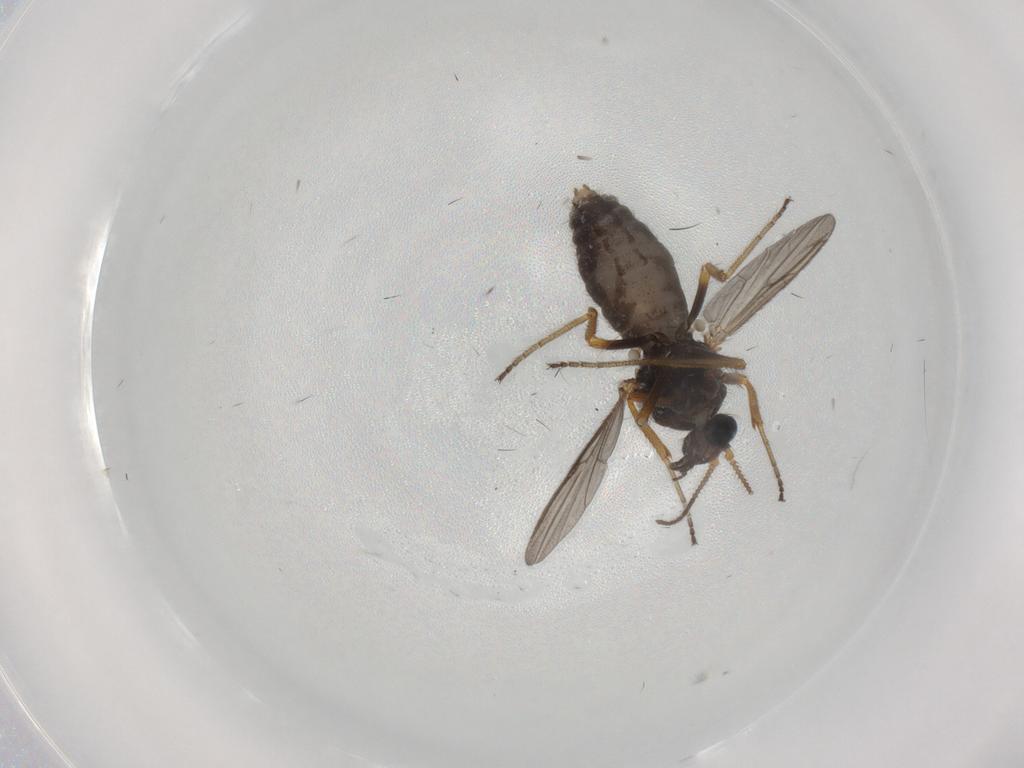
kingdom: Animalia
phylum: Arthropoda
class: Insecta
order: Diptera
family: Ceratopogonidae
